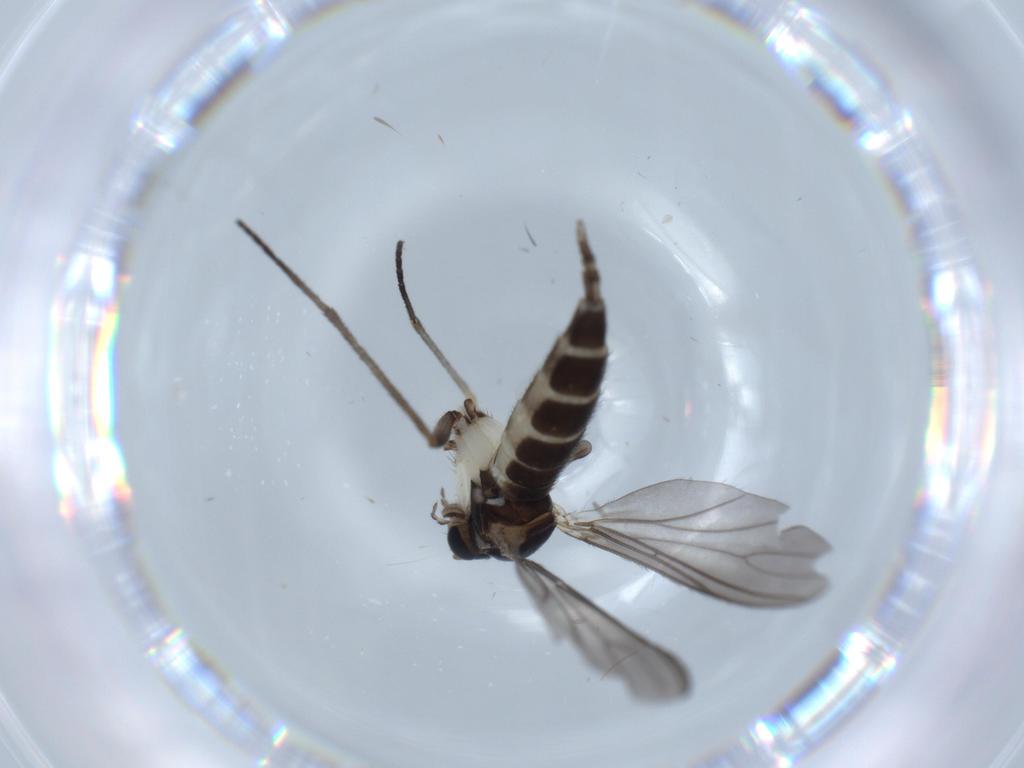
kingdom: Animalia
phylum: Arthropoda
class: Insecta
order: Diptera
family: Sciaridae
